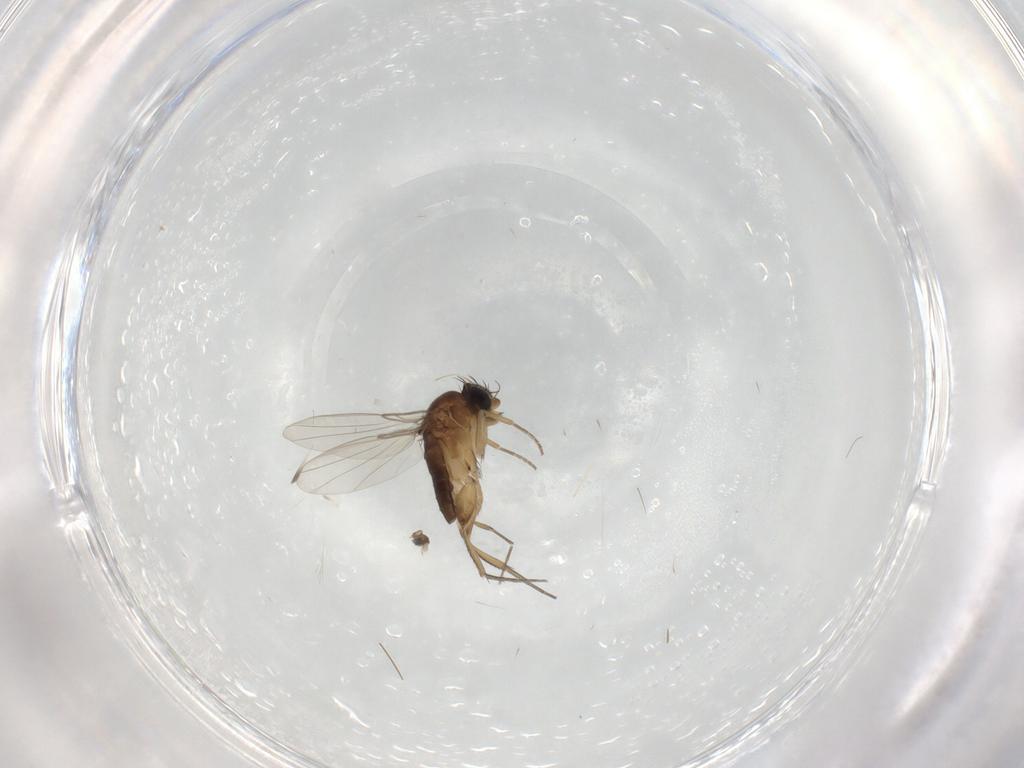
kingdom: Animalia
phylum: Arthropoda
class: Insecta
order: Diptera
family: Phoridae
